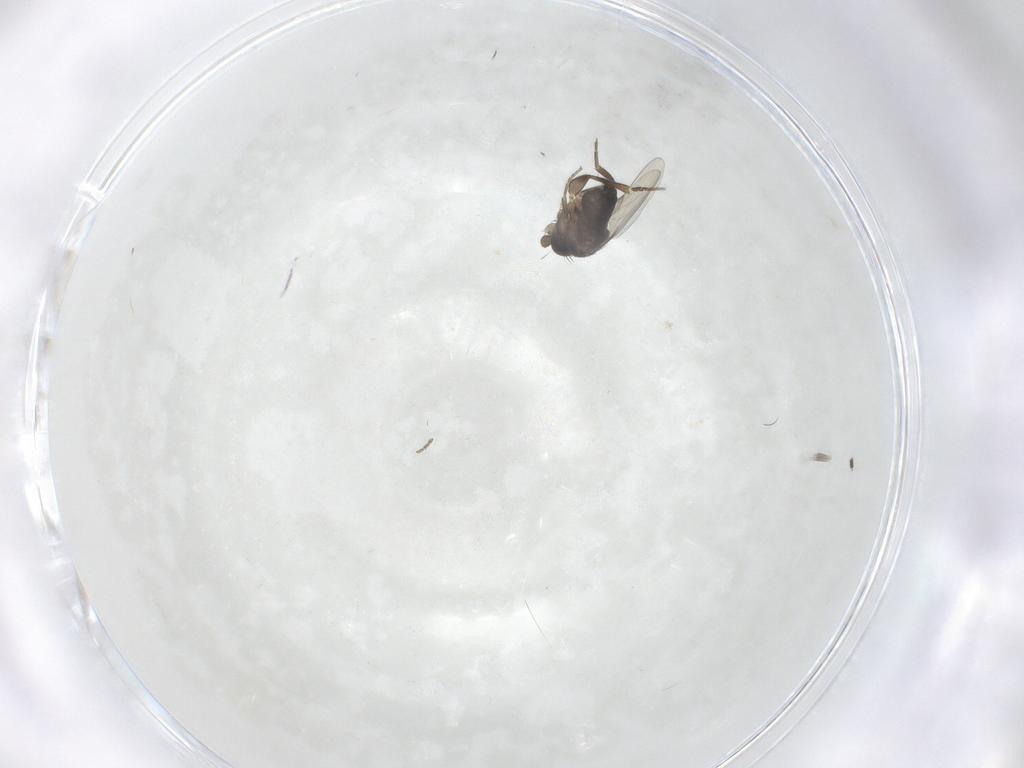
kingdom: Animalia
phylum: Arthropoda
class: Insecta
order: Diptera
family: Phoridae
